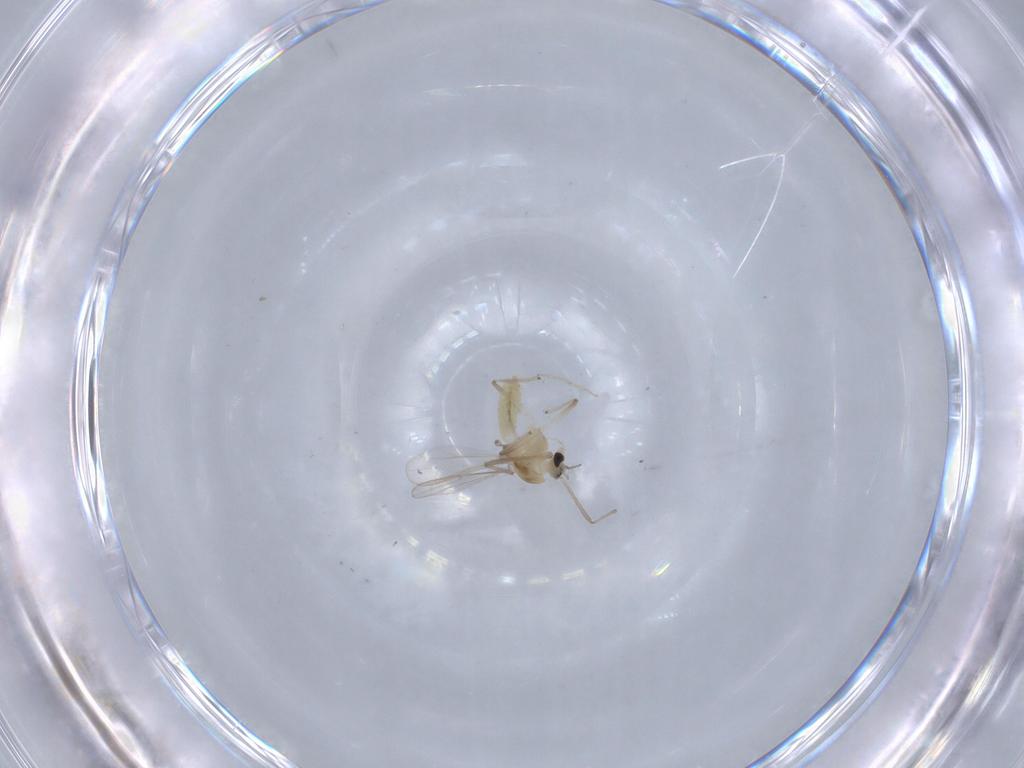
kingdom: Animalia
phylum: Arthropoda
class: Insecta
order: Diptera
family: Chironomidae
